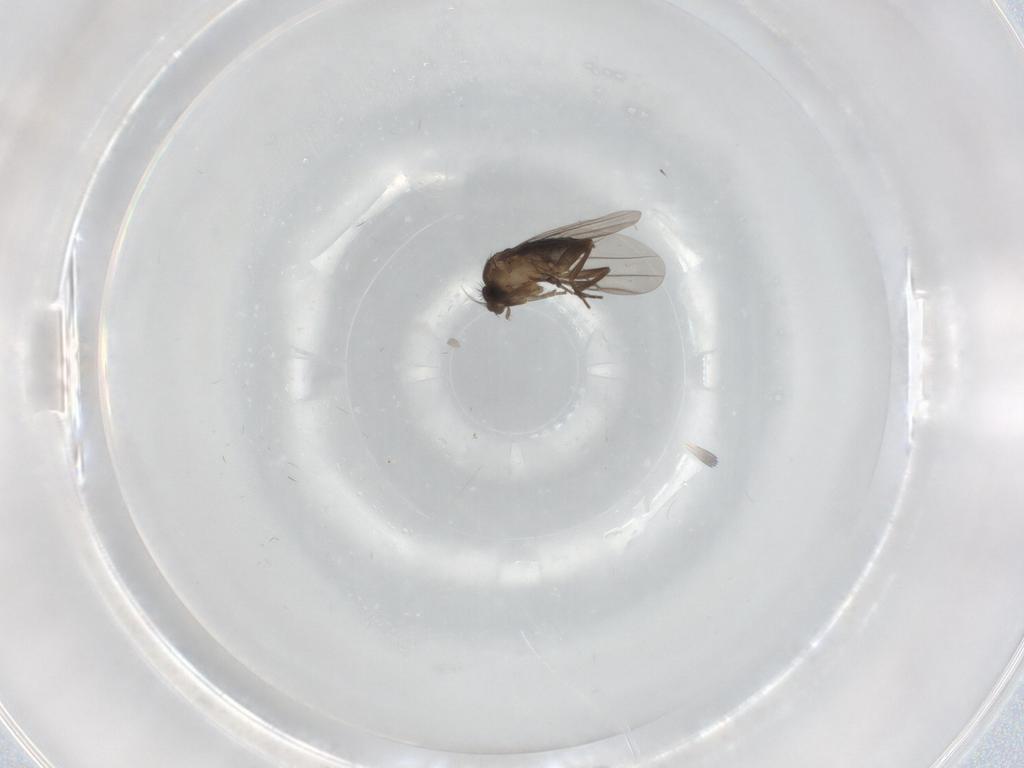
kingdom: Animalia
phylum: Arthropoda
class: Insecta
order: Diptera
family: Phoridae
